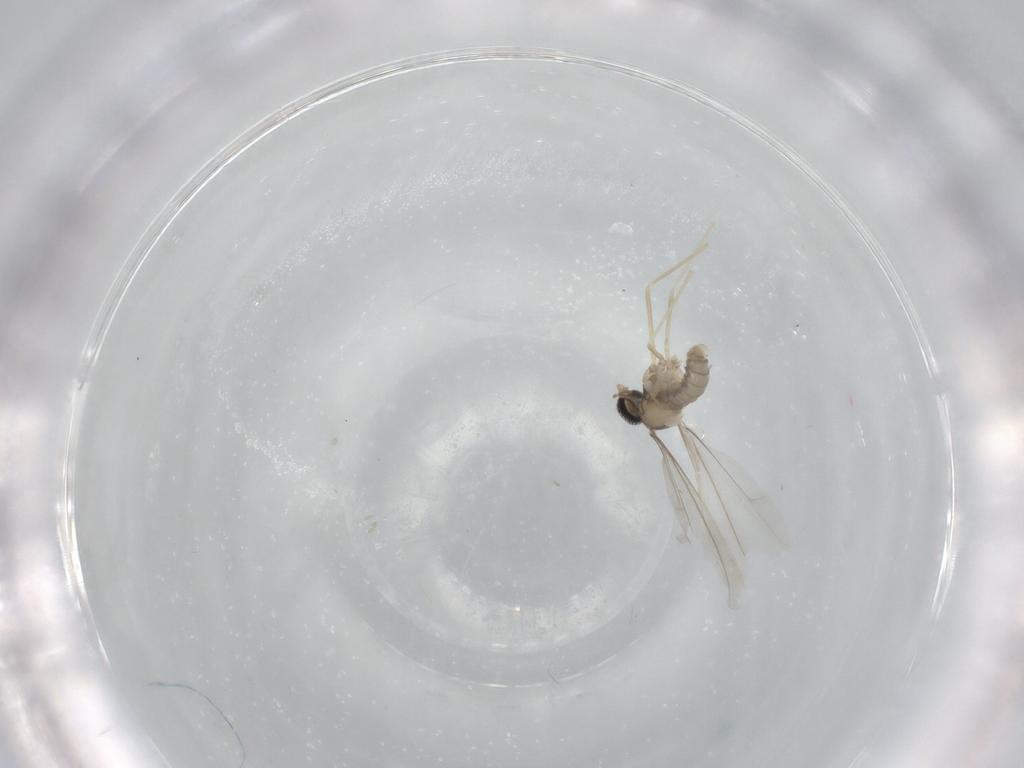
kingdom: Animalia
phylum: Arthropoda
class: Insecta
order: Diptera
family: Cecidomyiidae
